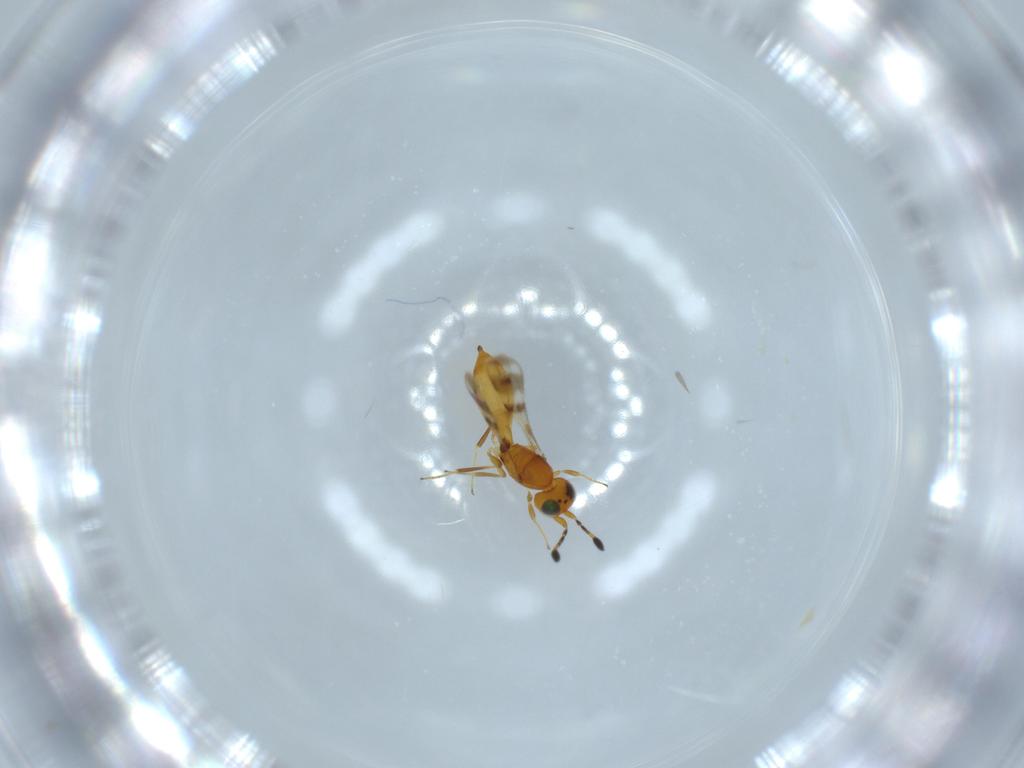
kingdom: Animalia
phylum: Arthropoda
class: Insecta
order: Hymenoptera
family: Scelionidae
